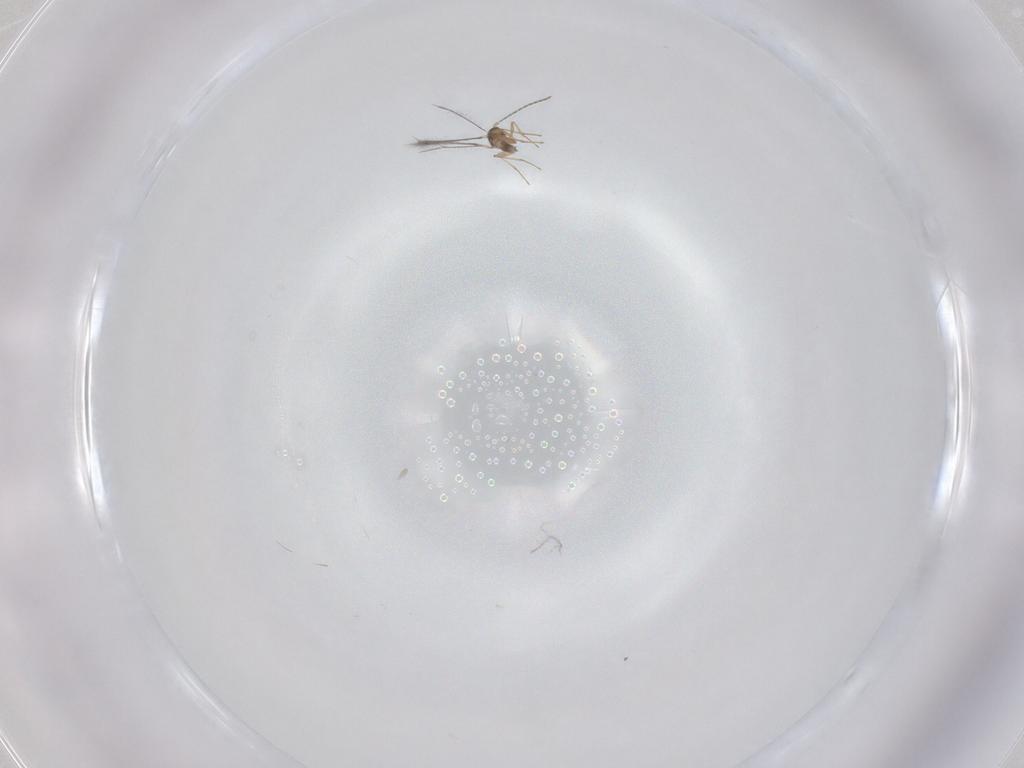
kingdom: Animalia
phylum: Arthropoda
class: Insecta
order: Hymenoptera
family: Mymaridae
